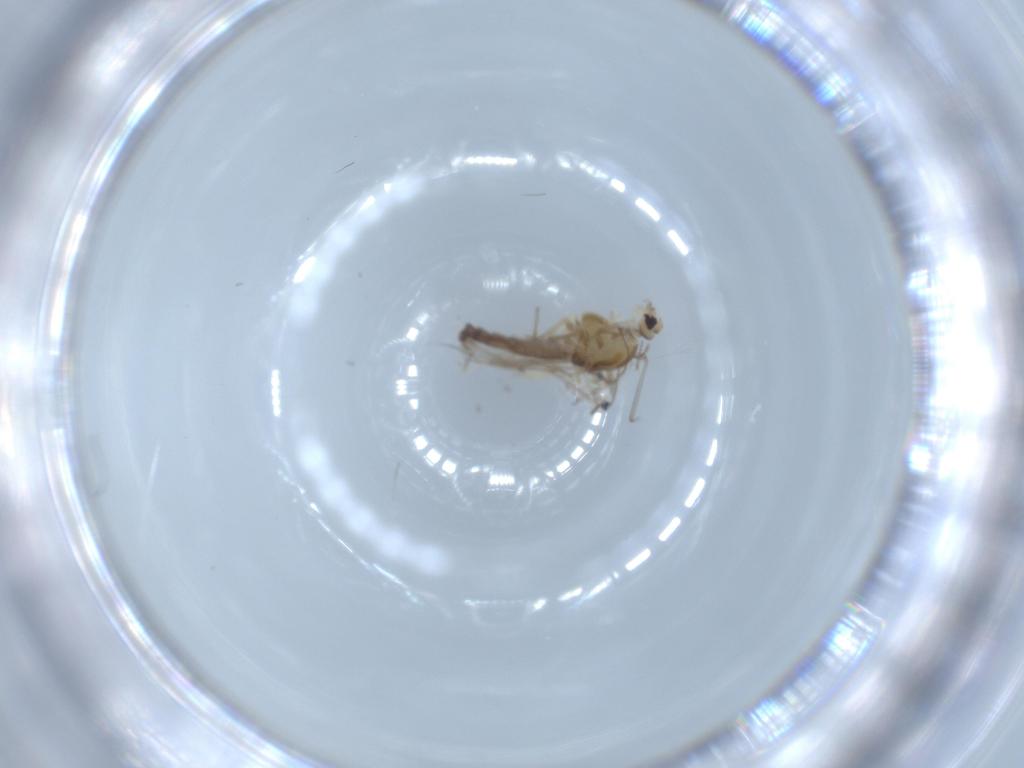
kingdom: Animalia
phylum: Arthropoda
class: Insecta
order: Diptera
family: Chironomidae
